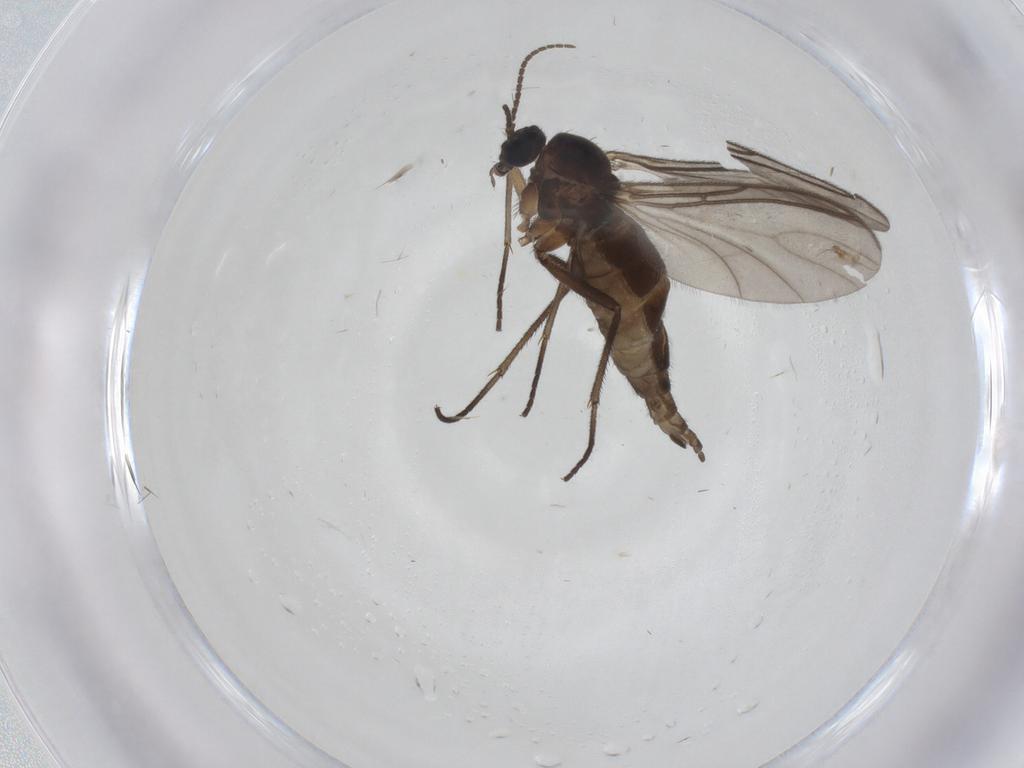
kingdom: Animalia
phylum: Arthropoda
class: Insecta
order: Diptera
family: Sciaridae
